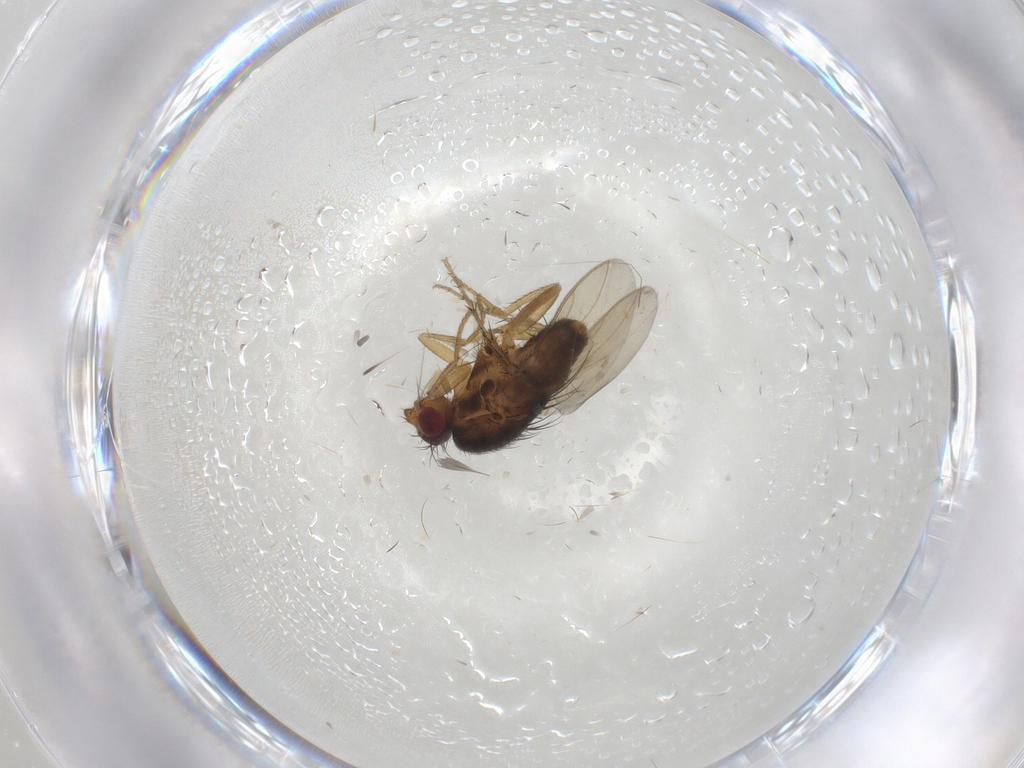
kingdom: Animalia
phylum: Arthropoda
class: Insecta
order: Diptera
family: Sphaeroceridae
